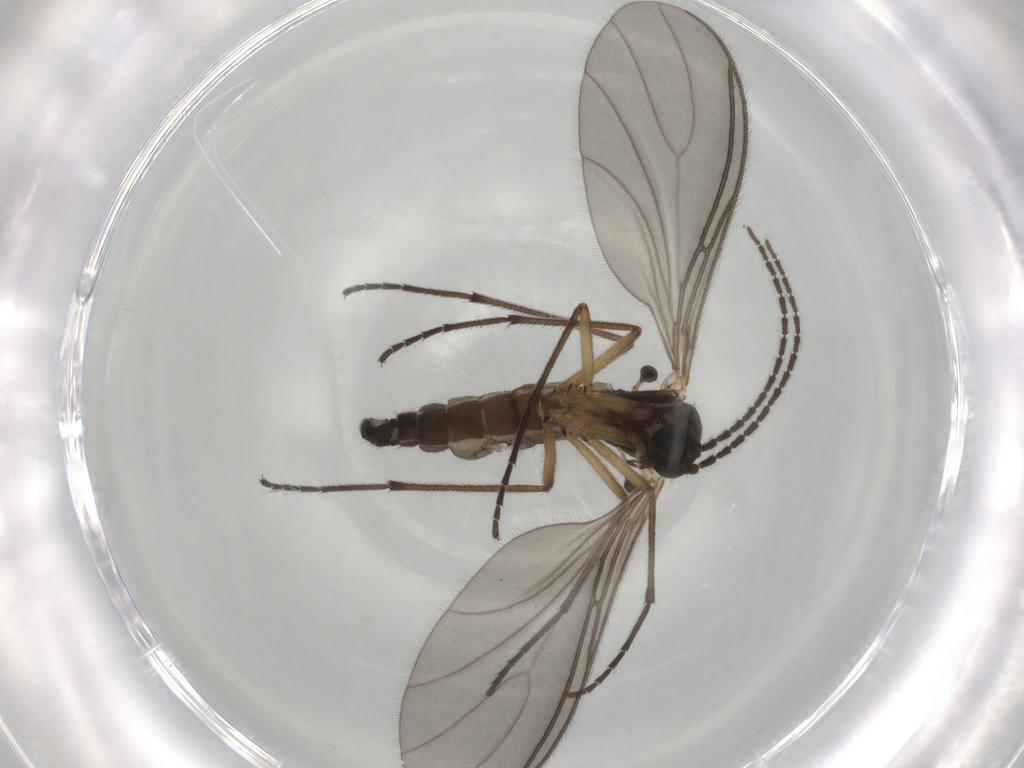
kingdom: Animalia
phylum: Arthropoda
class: Insecta
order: Diptera
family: Sciaridae
